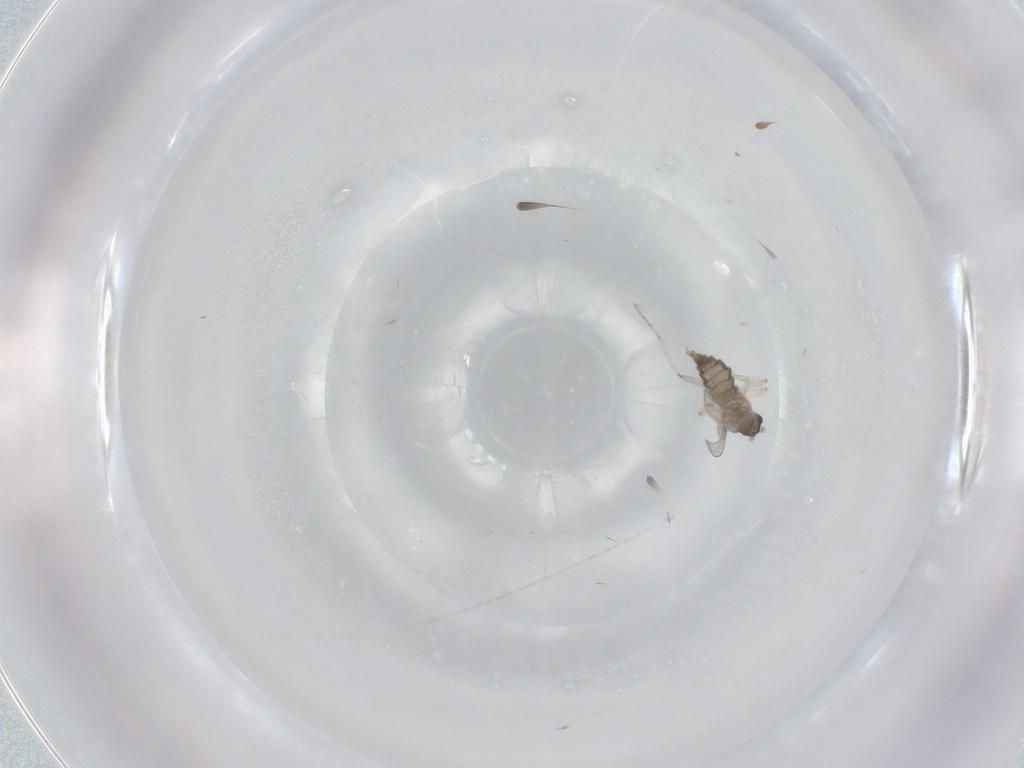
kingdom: Animalia
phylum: Arthropoda
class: Insecta
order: Diptera
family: Cecidomyiidae
